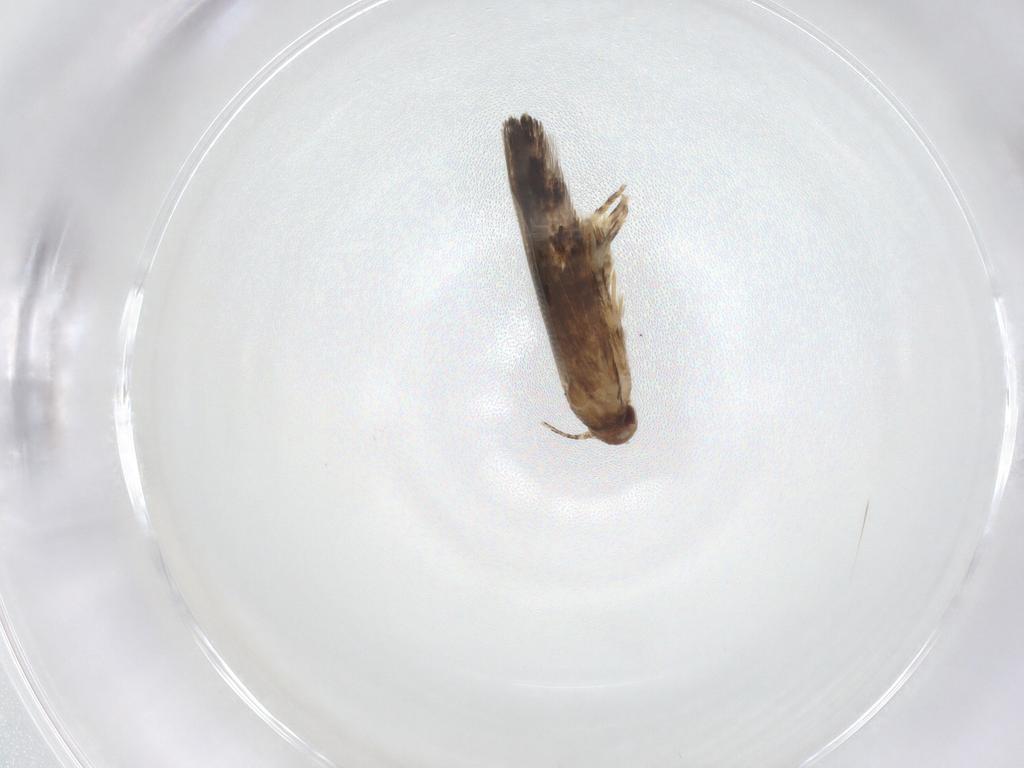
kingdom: Animalia
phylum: Arthropoda
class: Insecta
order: Lepidoptera
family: Momphidae
